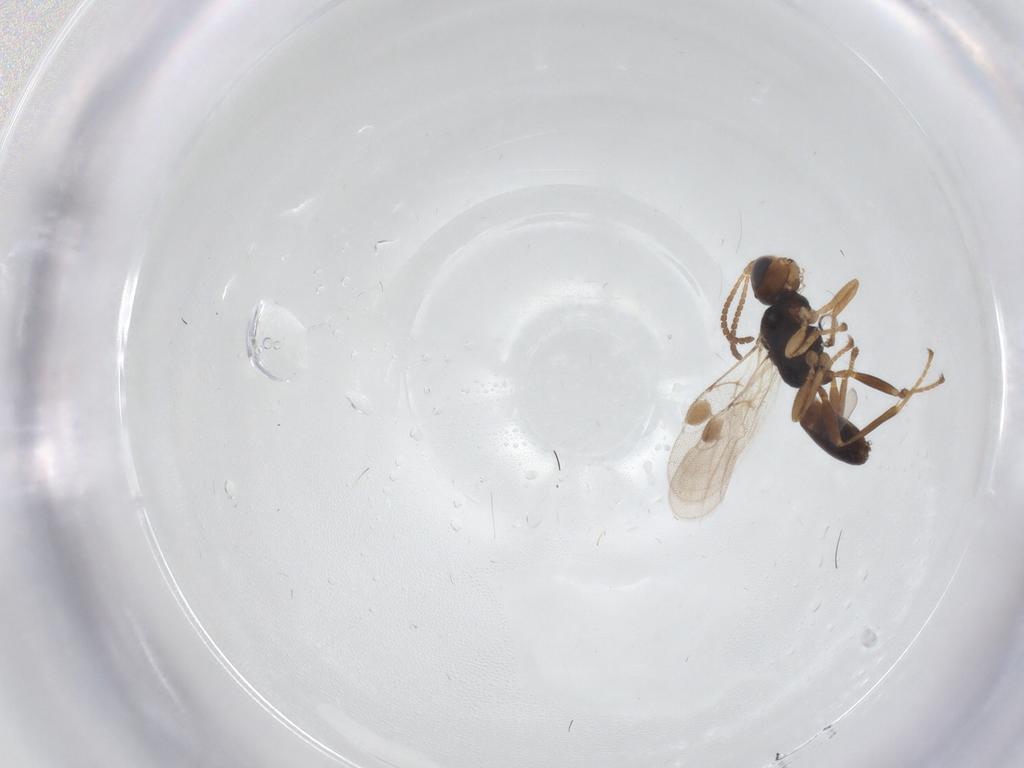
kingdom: Animalia
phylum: Arthropoda
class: Insecta
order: Hymenoptera
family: Braconidae
